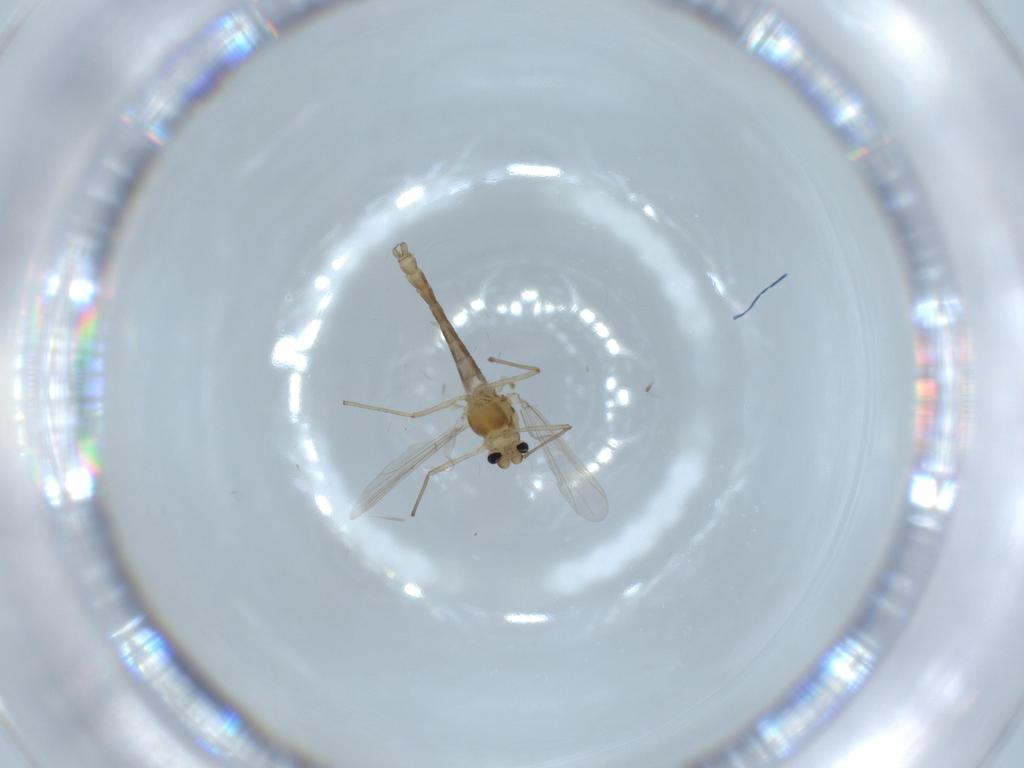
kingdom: Animalia
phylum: Arthropoda
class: Insecta
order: Diptera
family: Chironomidae
